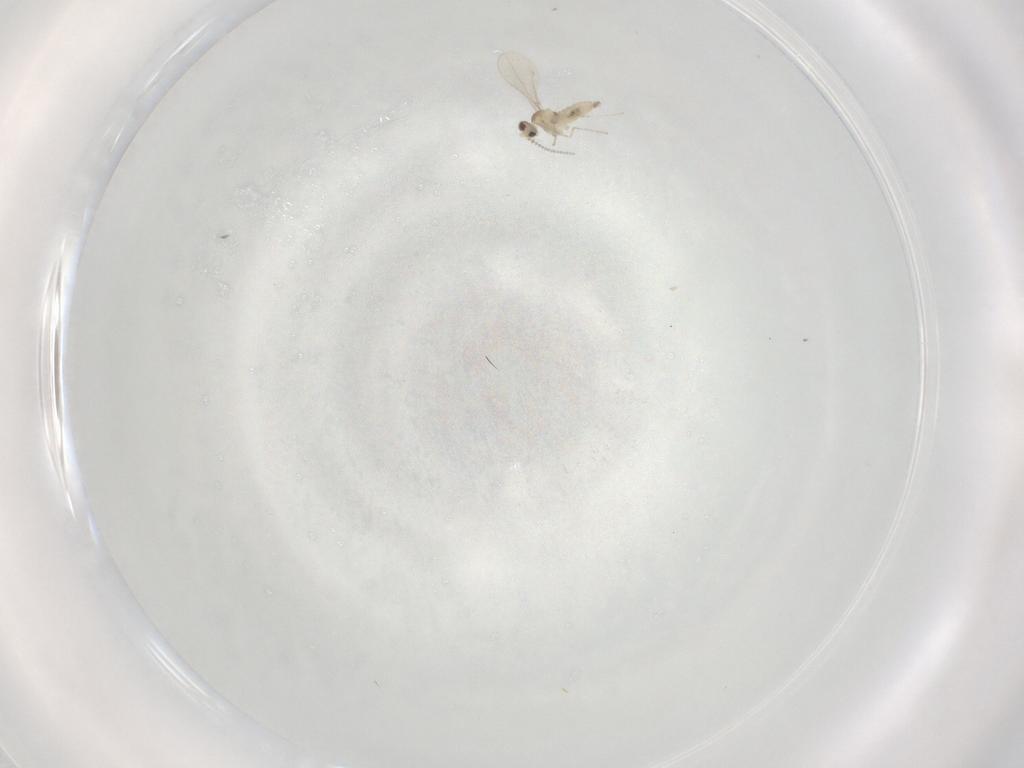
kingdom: Animalia
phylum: Arthropoda
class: Insecta
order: Diptera
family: Cecidomyiidae
